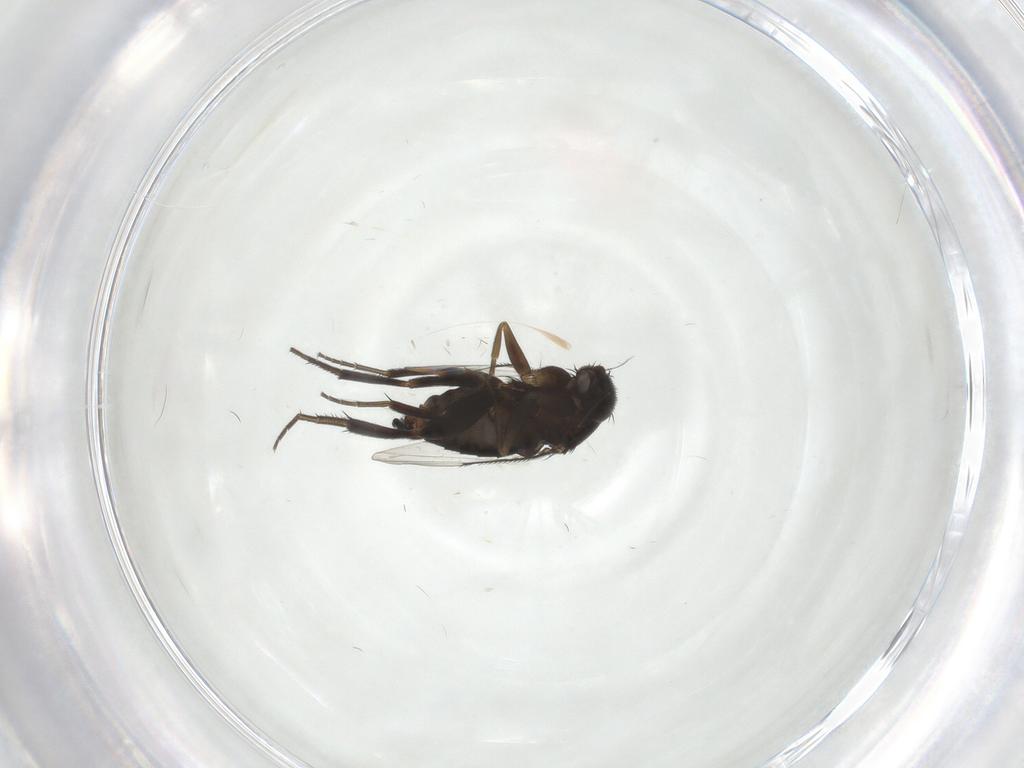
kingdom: Animalia
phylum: Arthropoda
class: Insecta
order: Diptera
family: Phoridae
